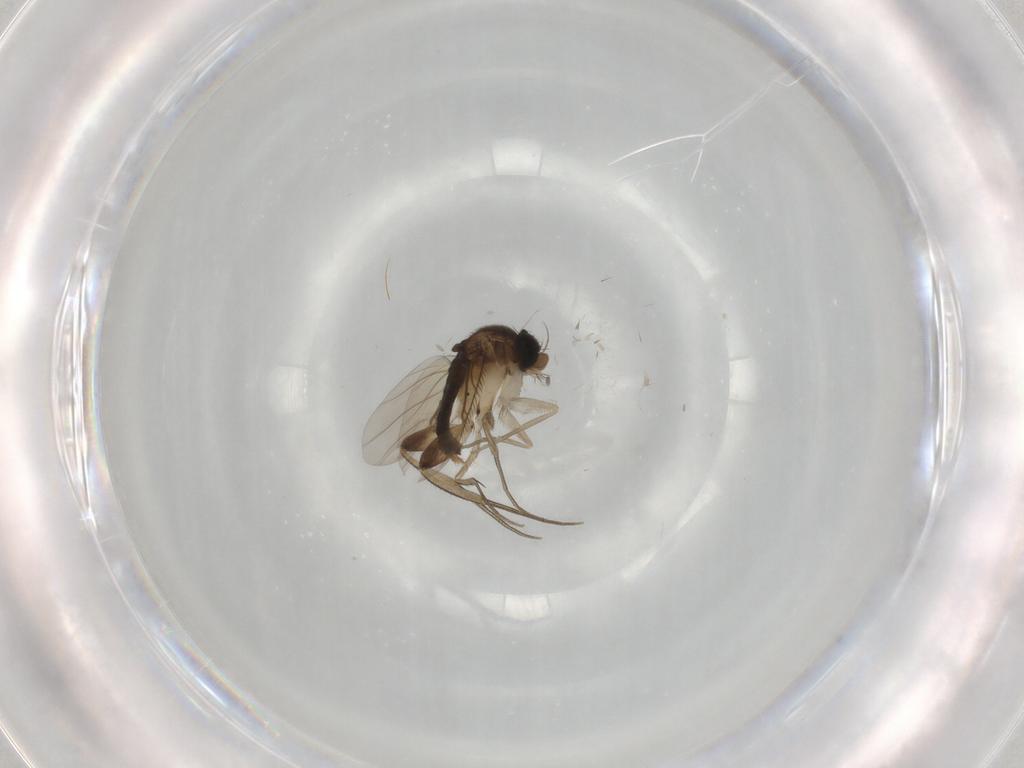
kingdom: Animalia
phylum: Arthropoda
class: Insecta
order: Diptera
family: Phoridae
